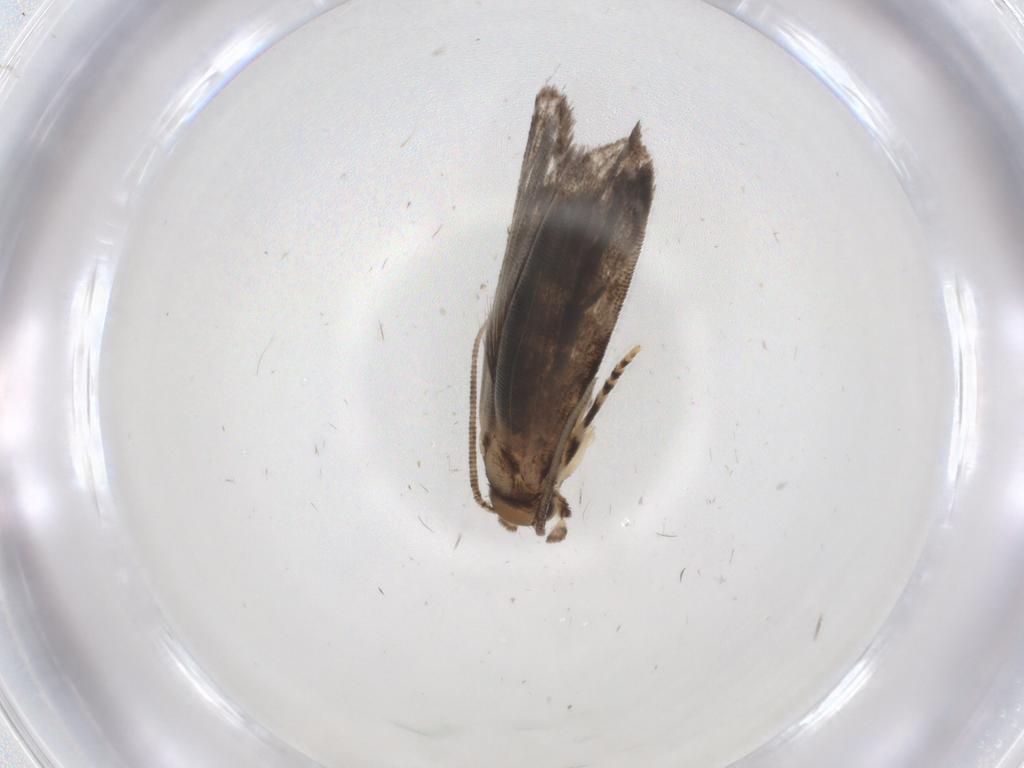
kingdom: Animalia
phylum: Arthropoda
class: Insecta
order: Lepidoptera
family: Dryadaulidae
